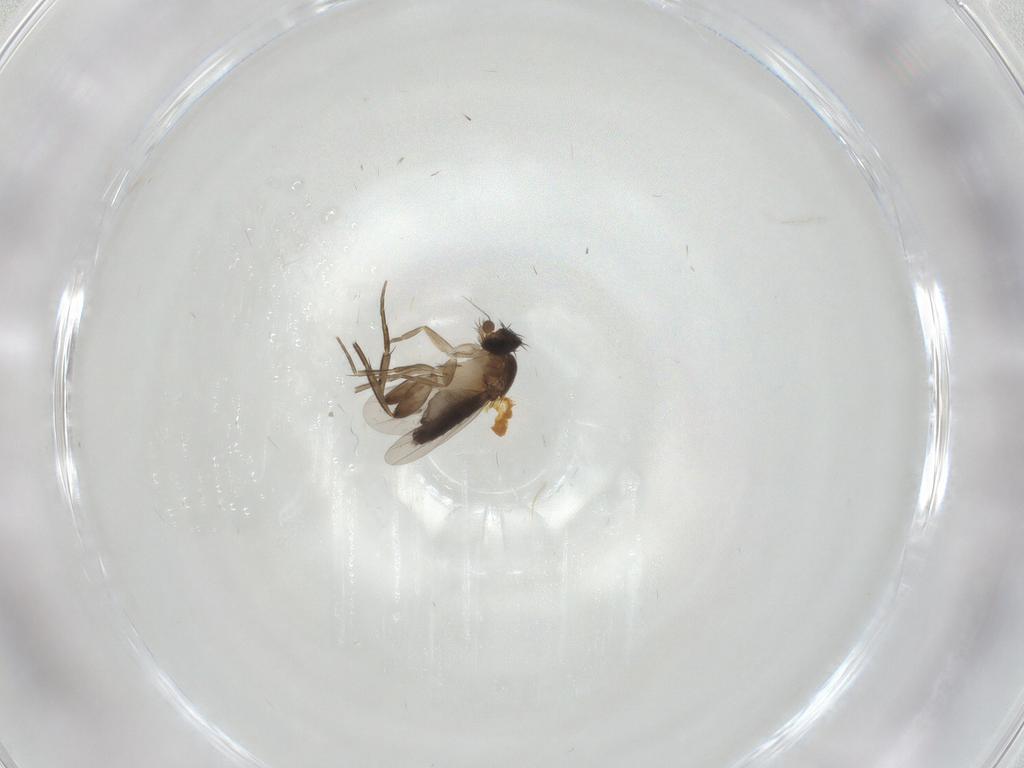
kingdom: Animalia
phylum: Arthropoda
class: Insecta
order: Diptera
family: Phoridae
